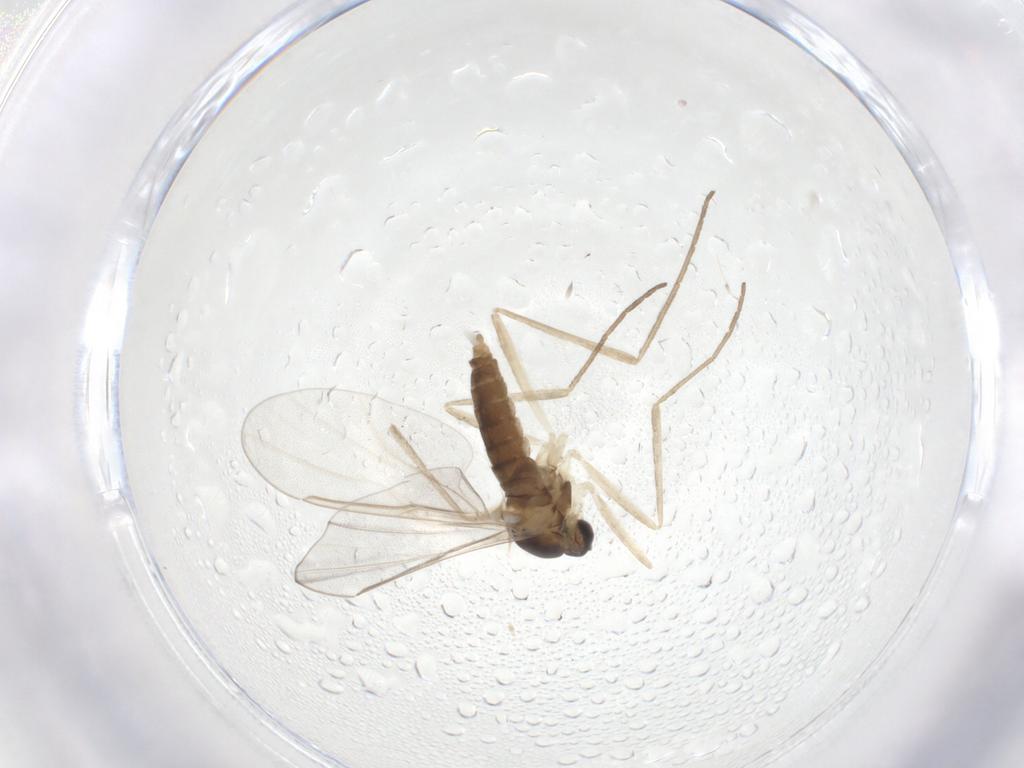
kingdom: Animalia
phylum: Arthropoda
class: Insecta
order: Diptera
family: Cecidomyiidae
